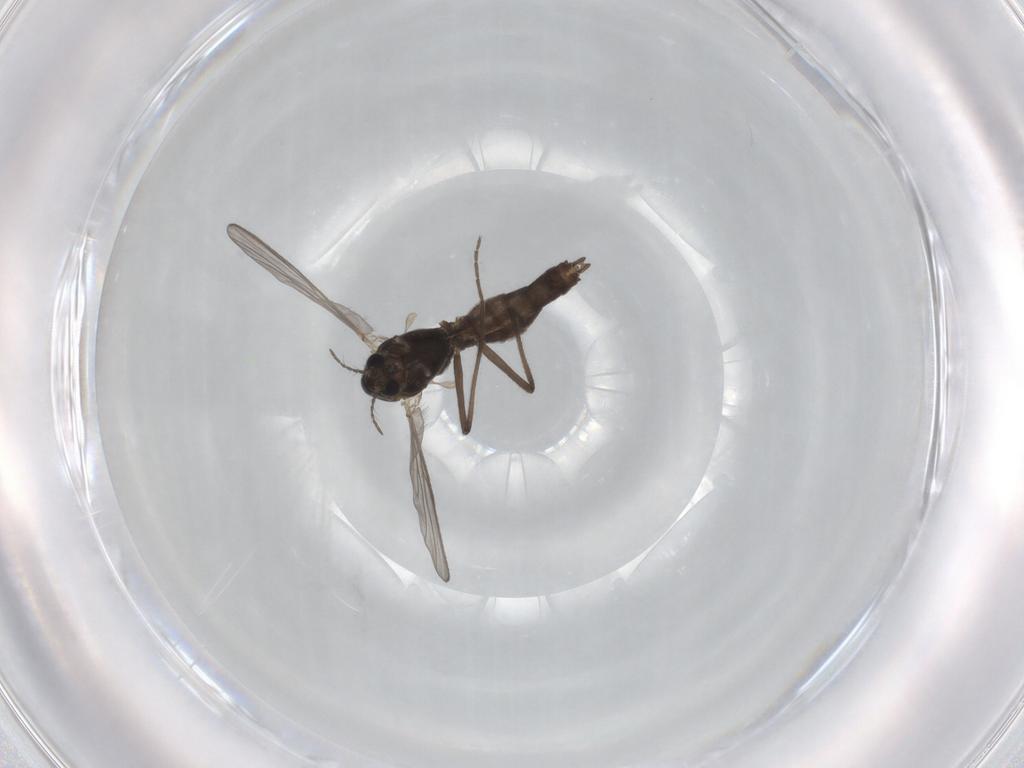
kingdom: Animalia
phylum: Arthropoda
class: Insecta
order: Diptera
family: Chironomidae
